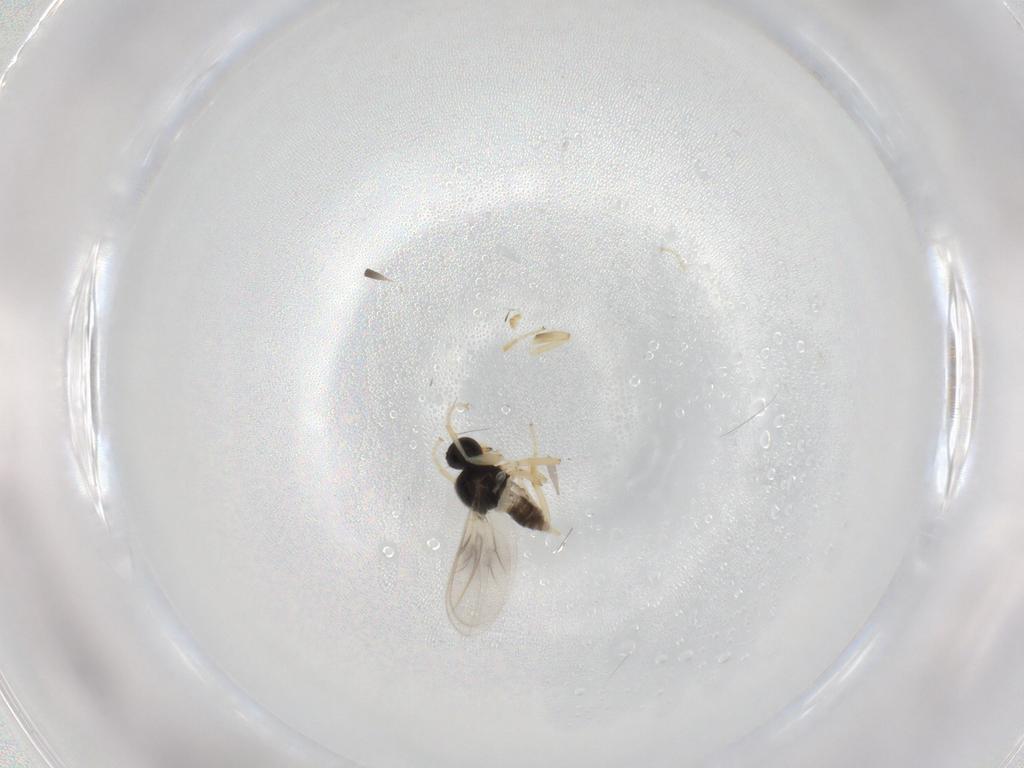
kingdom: Animalia
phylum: Arthropoda
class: Insecta
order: Diptera
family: Hybotidae
